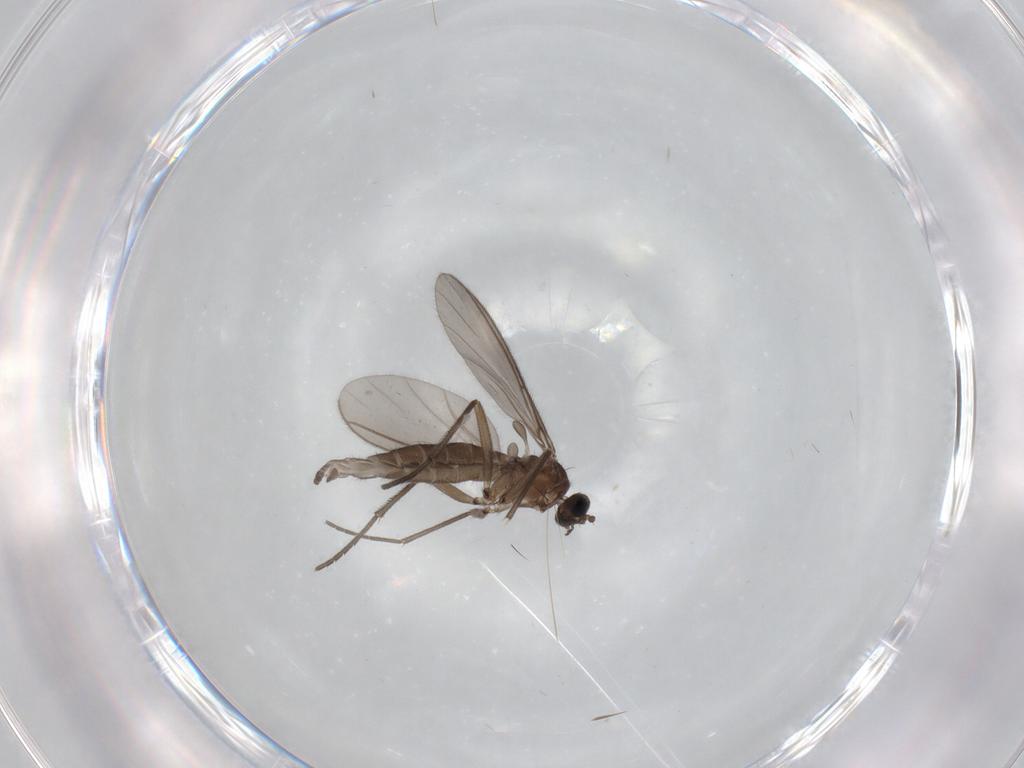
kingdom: Animalia
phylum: Arthropoda
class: Insecta
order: Diptera
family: Sciaridae
